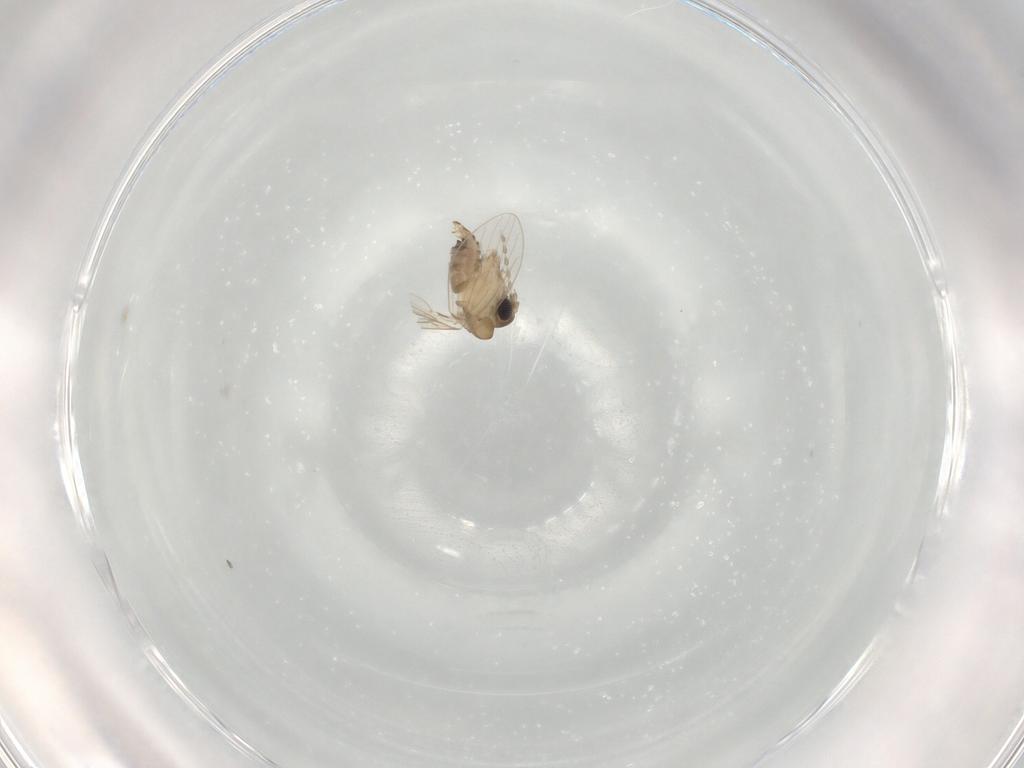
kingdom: Animalia
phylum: Arthropoda
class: Insecta
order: Diptera
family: Psychodidae
